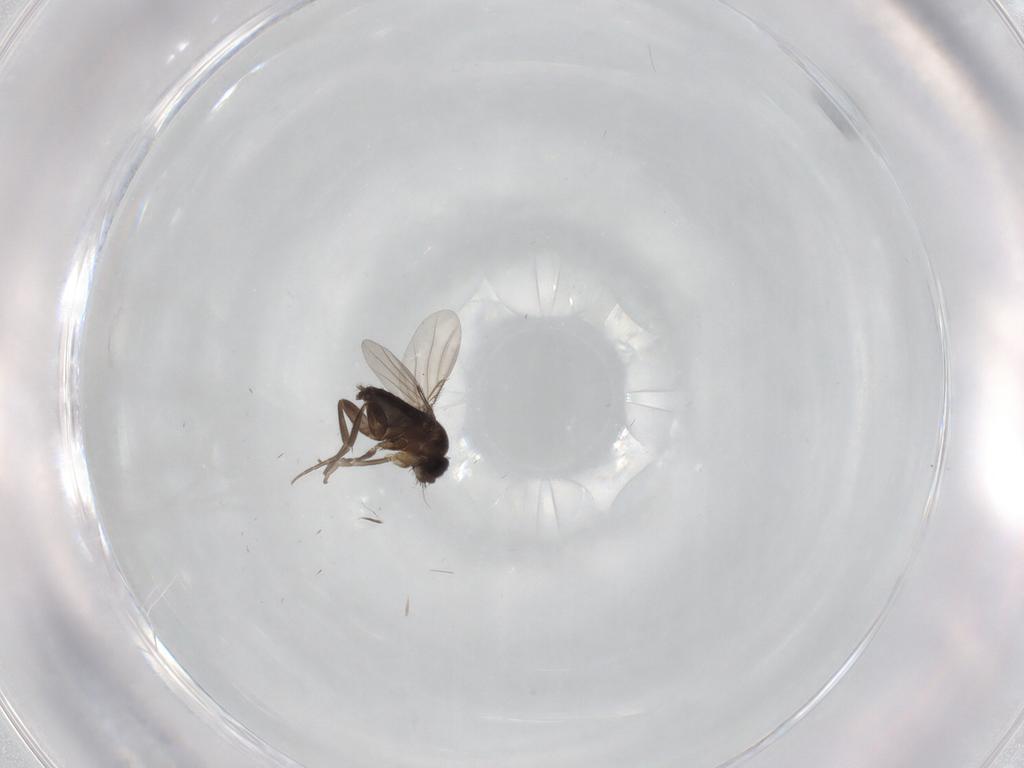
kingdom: Animalia
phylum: Arthropoda
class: Insecta
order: Diptera
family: Phoridae
